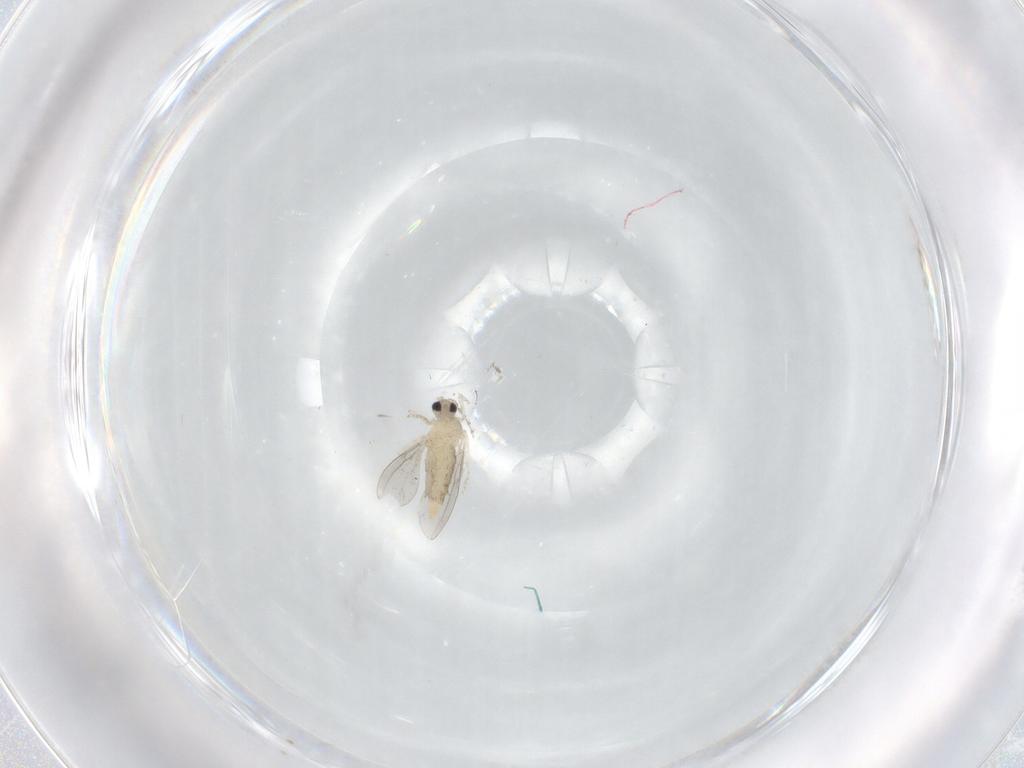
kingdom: Animalia
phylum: Arthropoda
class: Insecta
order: Diptera
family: Cecidomyiidae
